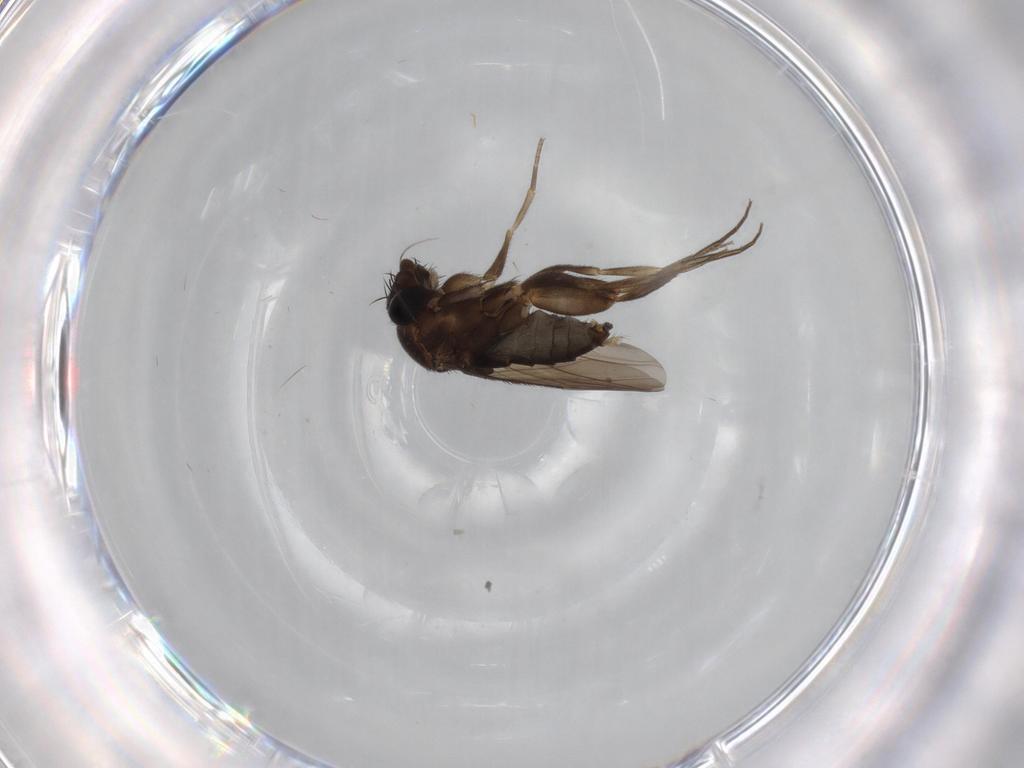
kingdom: Animalia
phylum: Arthropoda
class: Insecta
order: Diptera
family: Phoridae
